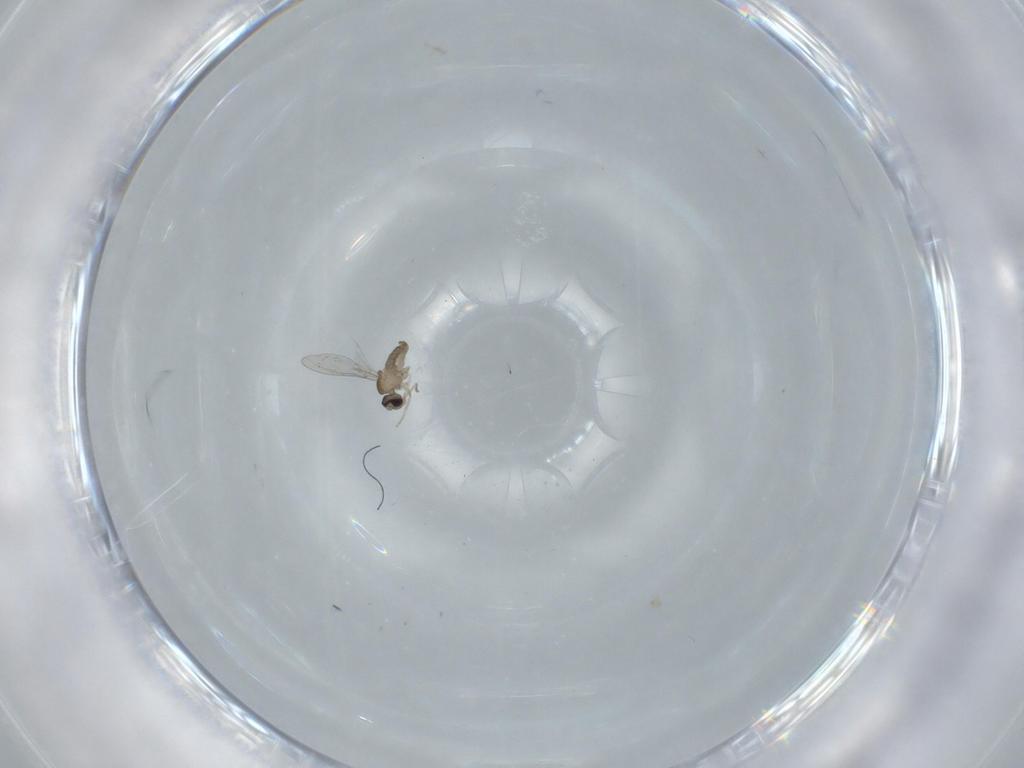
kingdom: Animalia
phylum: Arthropoda
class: Insecta
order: Diptera
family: Cecidomyiidae
